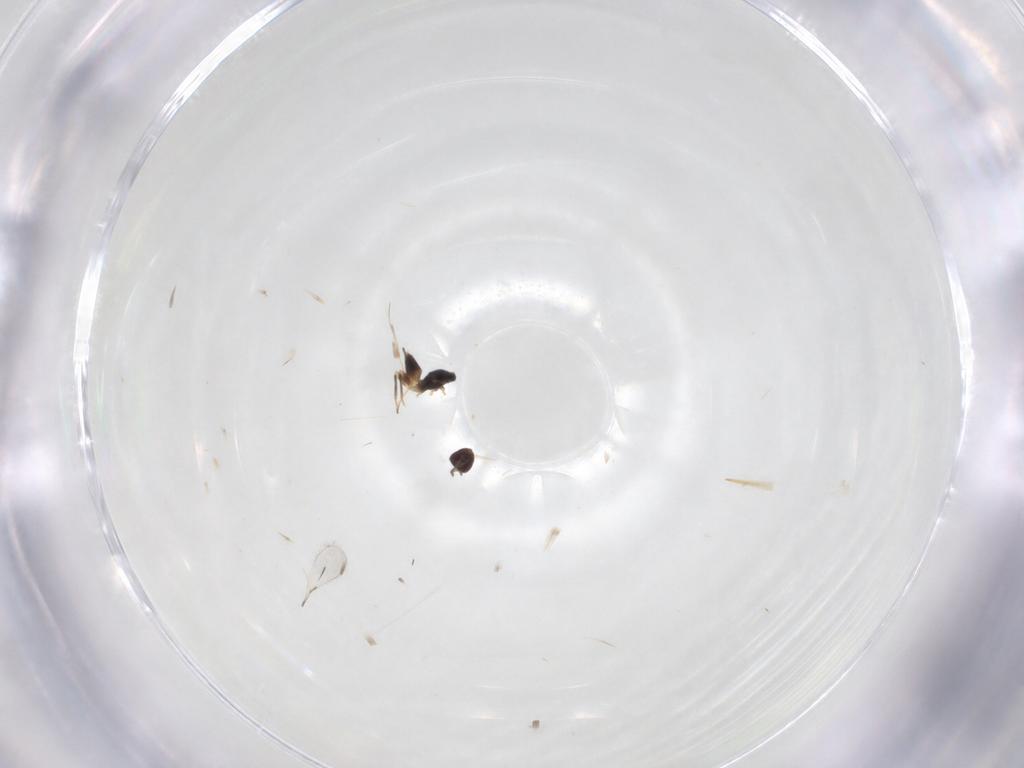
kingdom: Animalia
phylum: Arthropoda
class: Insecta
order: Hymenoptera
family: Mymaridae
